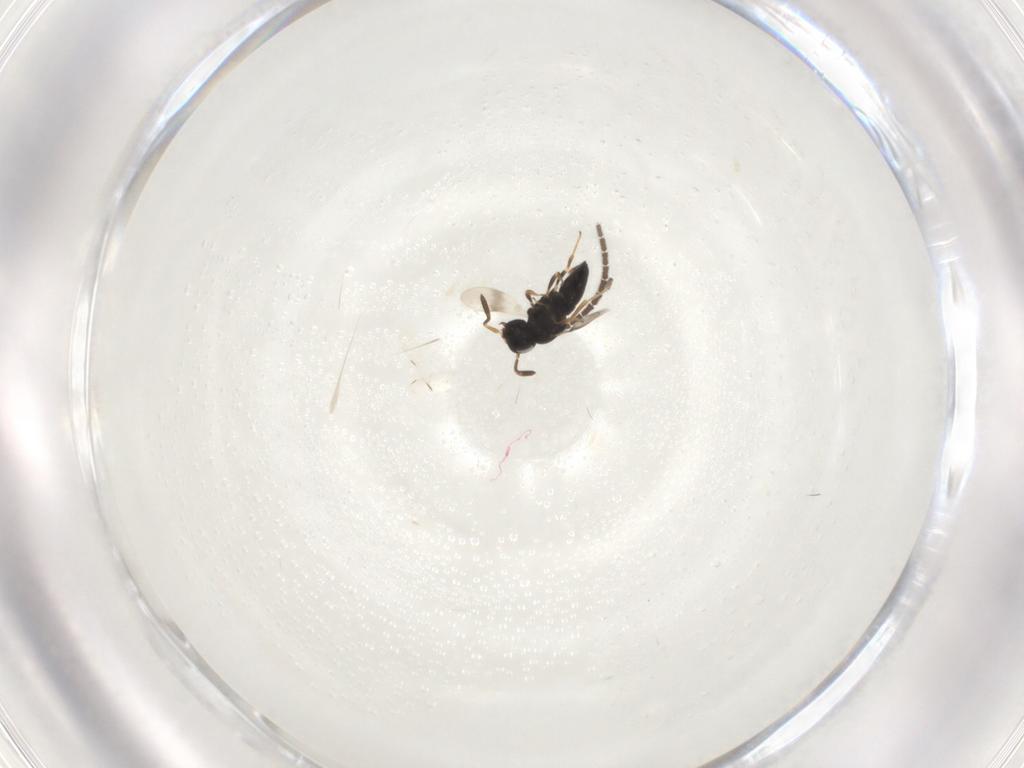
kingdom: Animalia
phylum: Arthropoda
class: Insecta
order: Hymenoptera
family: Scelionidae
